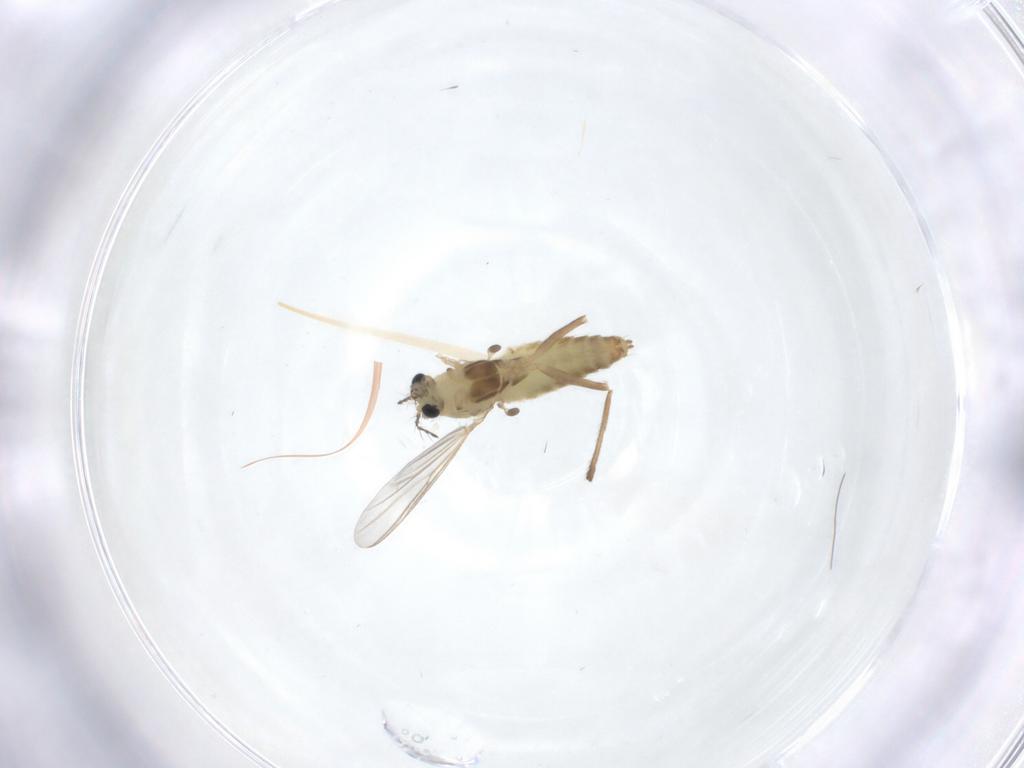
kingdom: Animalia
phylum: Arthropoda
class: Insecta
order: Diptera
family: Chironomidae
